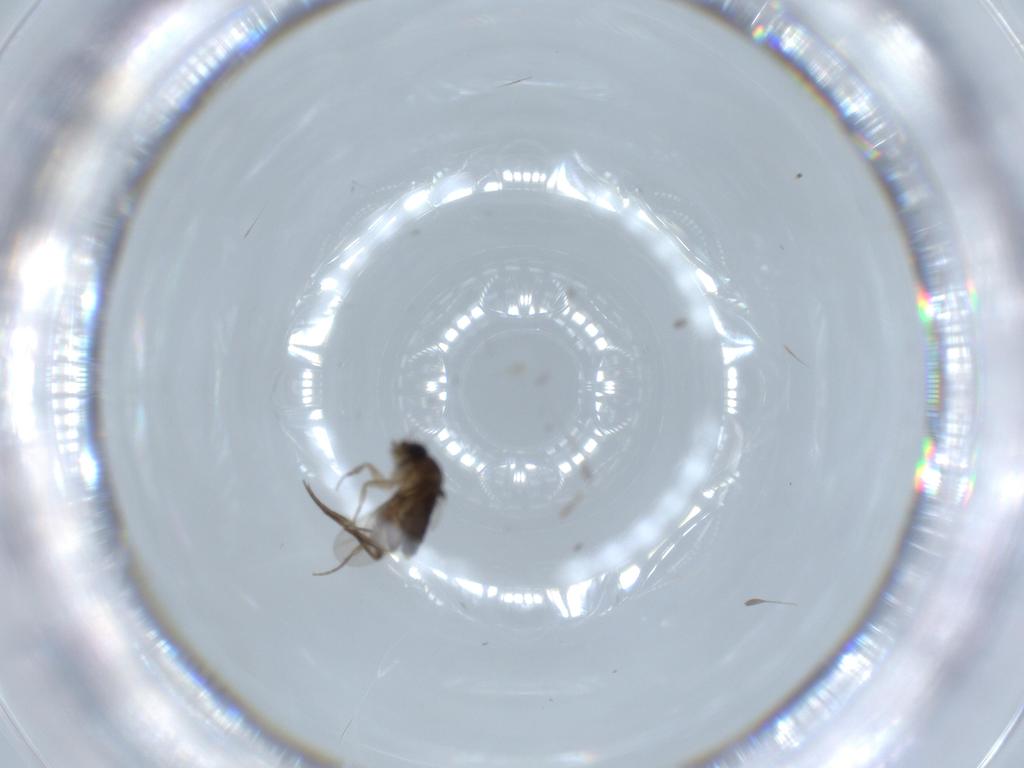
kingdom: Animalia
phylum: Arthropoda
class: Insecta
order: Diptera
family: Phoridae
